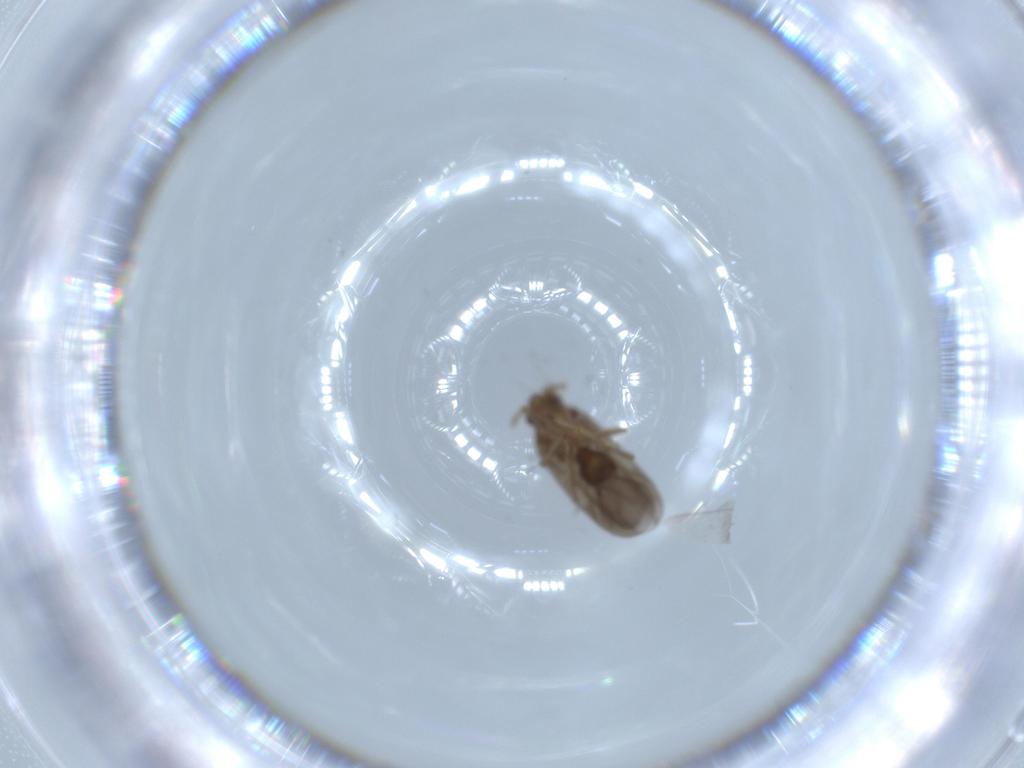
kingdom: Animalia
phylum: Arthropoda
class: Insecta
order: Hemiptera
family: Ceratocombidae
